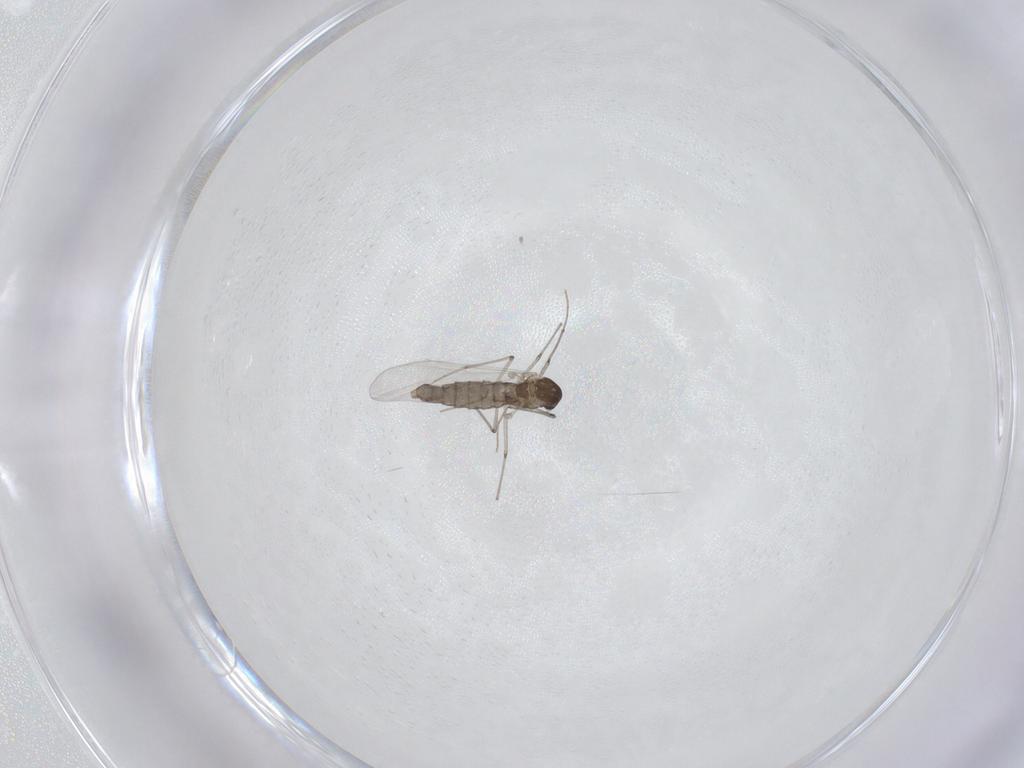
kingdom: Animalia
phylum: Arthropoda
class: Insecta
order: Diptera
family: Chironomidae
